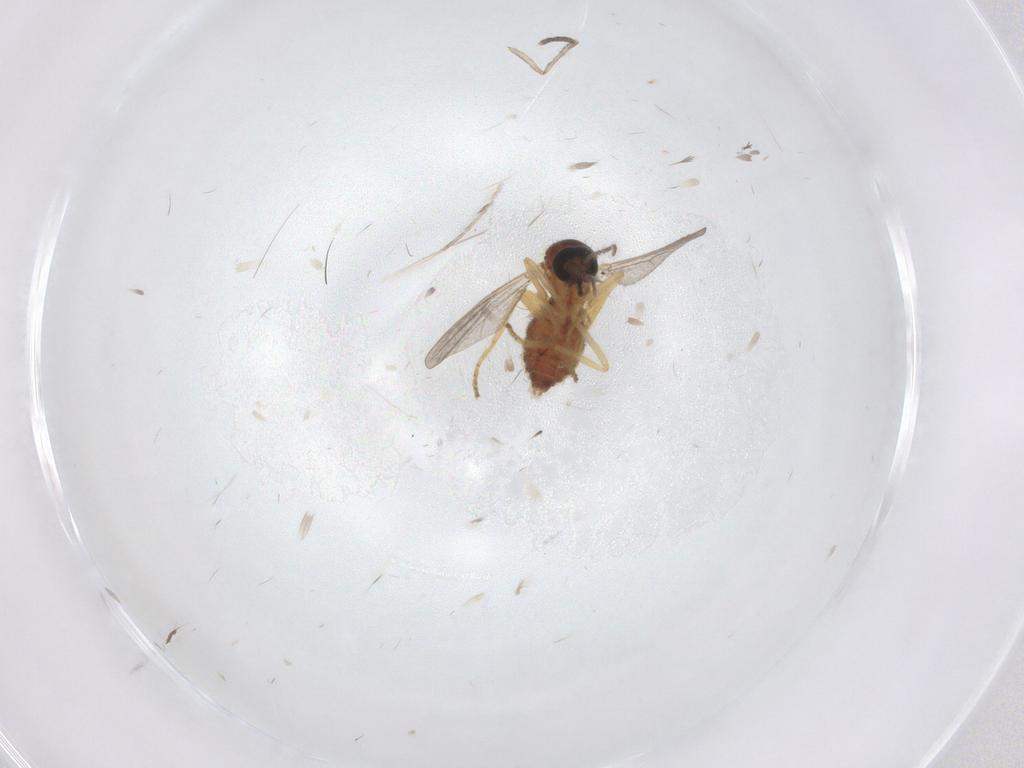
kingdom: Animalia
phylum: Arthropoda
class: Insecta
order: Diptera
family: Ceratopogonidae
